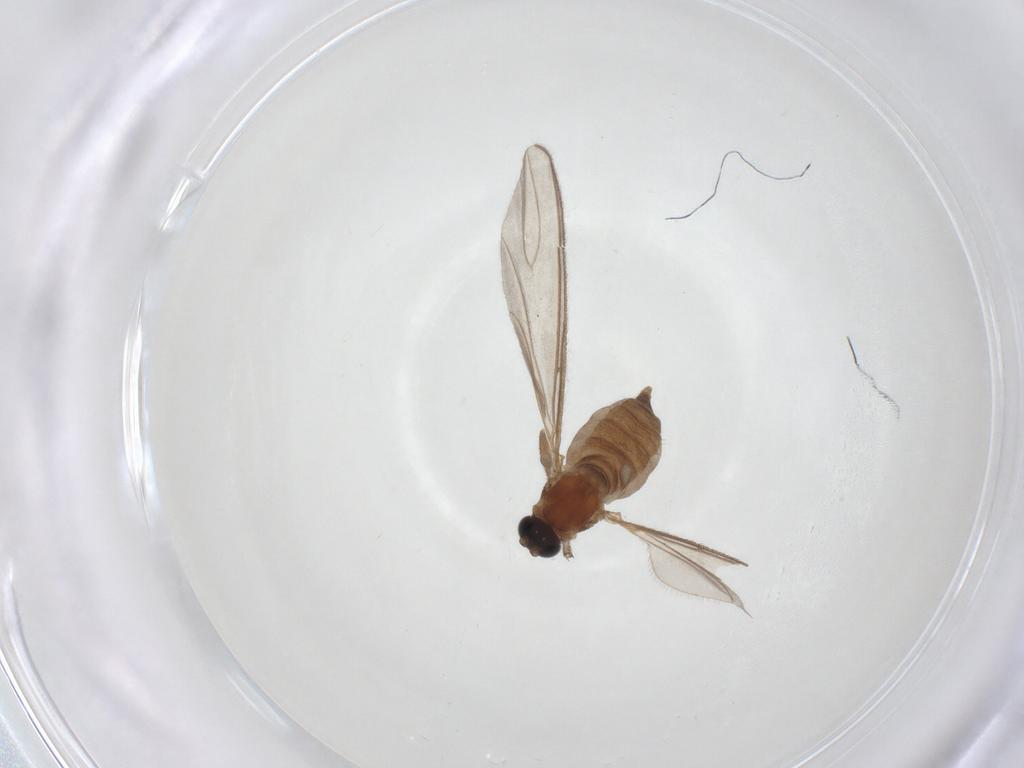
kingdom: Animalia
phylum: Arthropoda
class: Insecta
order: Diptera
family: Sciaridae
